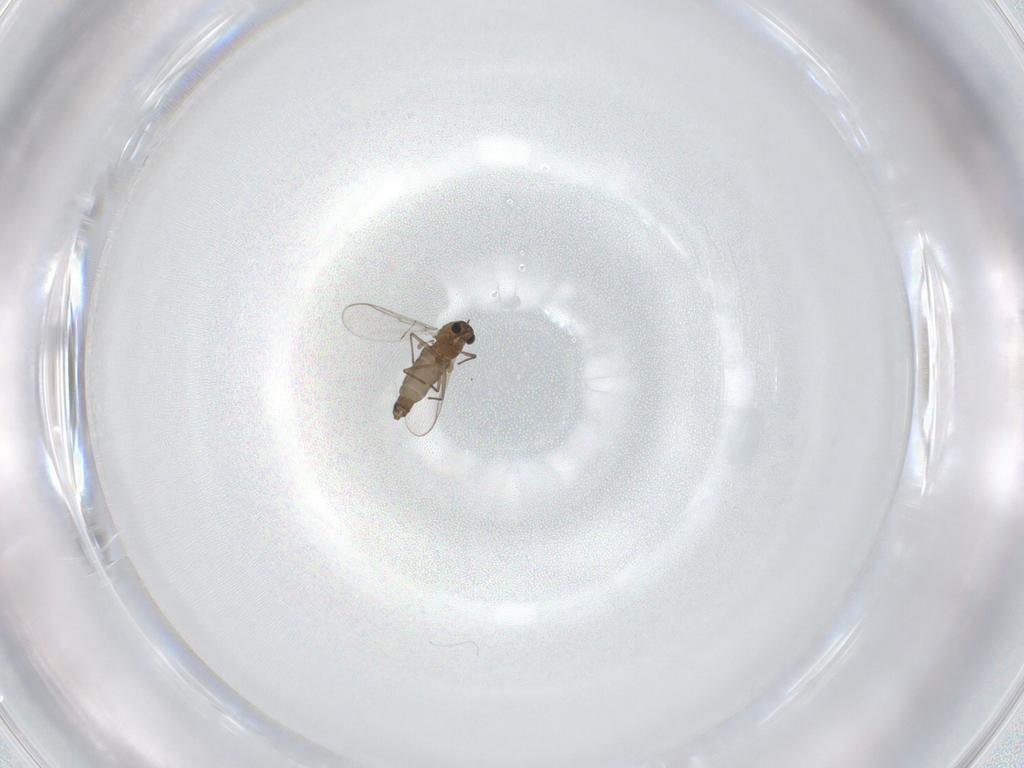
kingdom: Animalia
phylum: Arthropoda
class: Insecta
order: Diptera
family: Chironomidae
